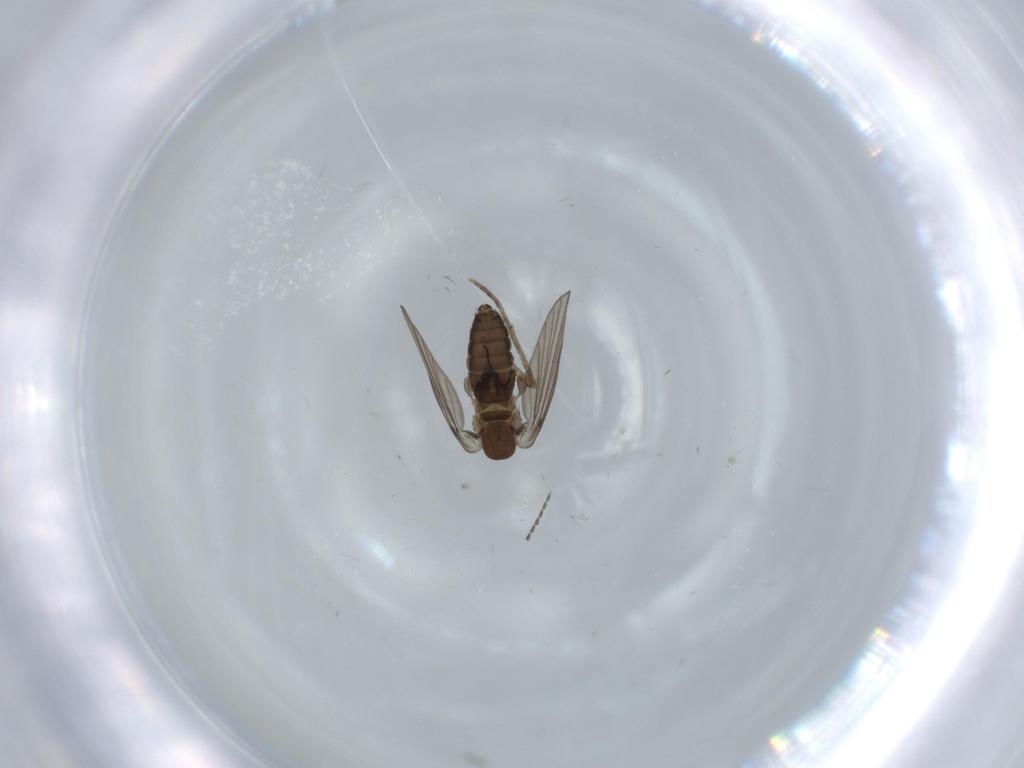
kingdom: Animalia
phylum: Arthropoda
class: Insecta
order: Diptera
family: Psychodidae
